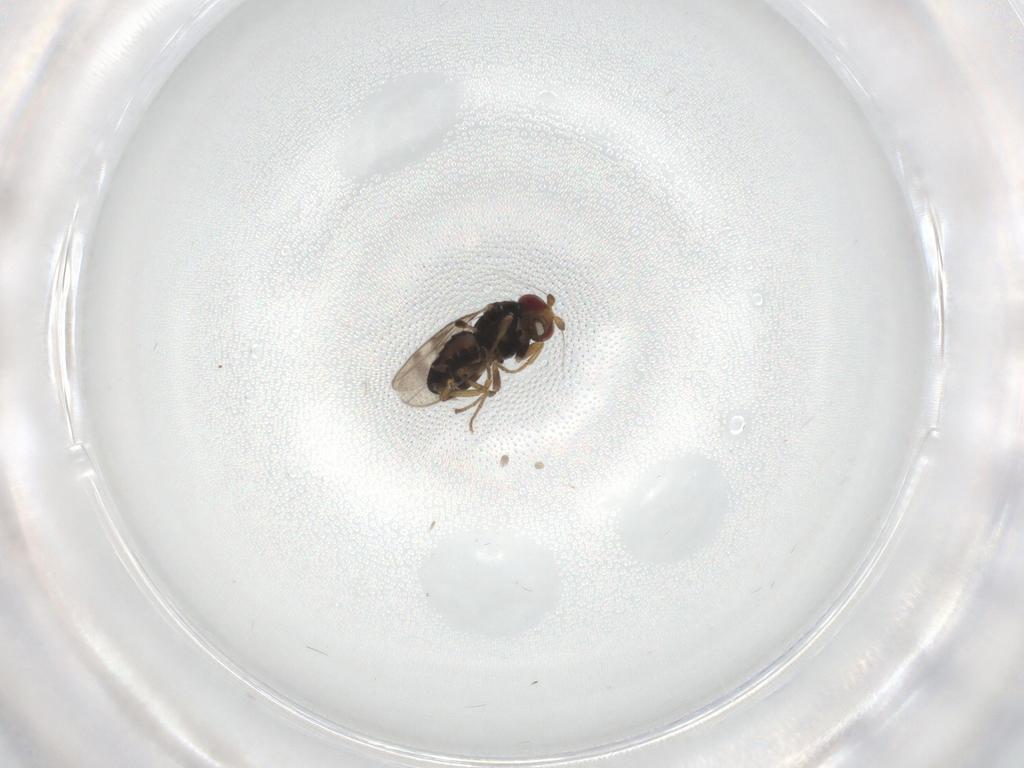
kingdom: Animalia
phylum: Arthropoda
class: Insecta
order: Diptera
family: Sphaeroceridae
